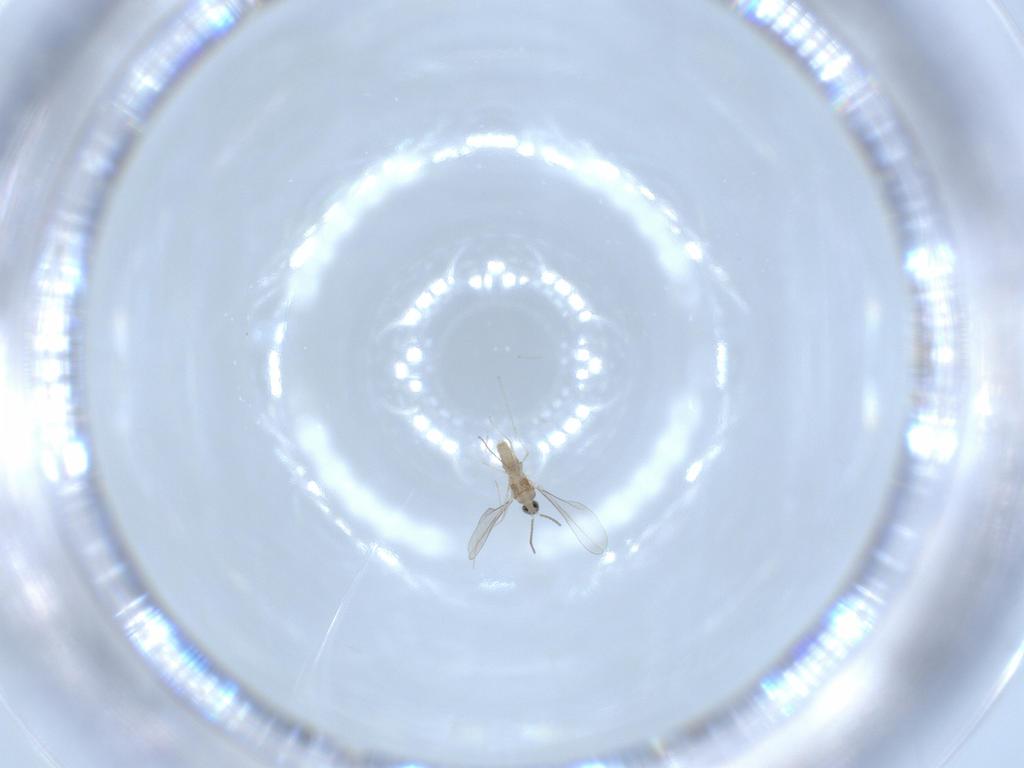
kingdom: Animalia
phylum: Arthropoda
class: Insecta
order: Diptera
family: Cecidomyiidae
